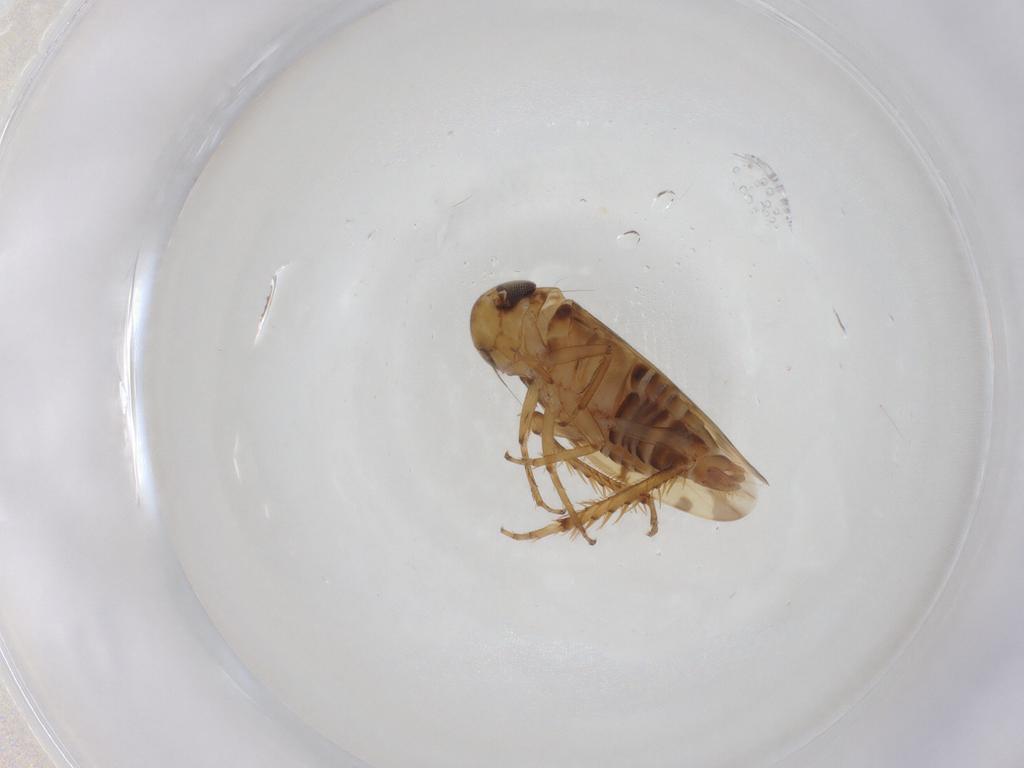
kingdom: Animalia
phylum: Arthropoda
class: Insecta
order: Hemiptera
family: Cicadellidae
